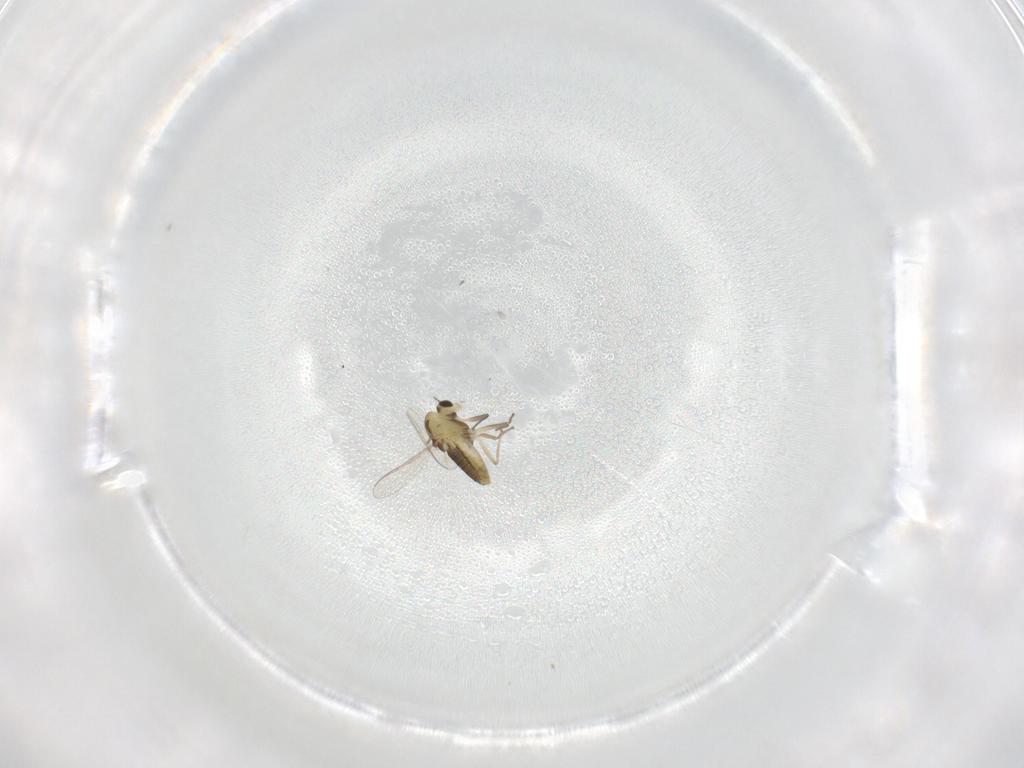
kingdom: Animalia
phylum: Arthropoda
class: Insecta
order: Diptera
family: Chironomidae
